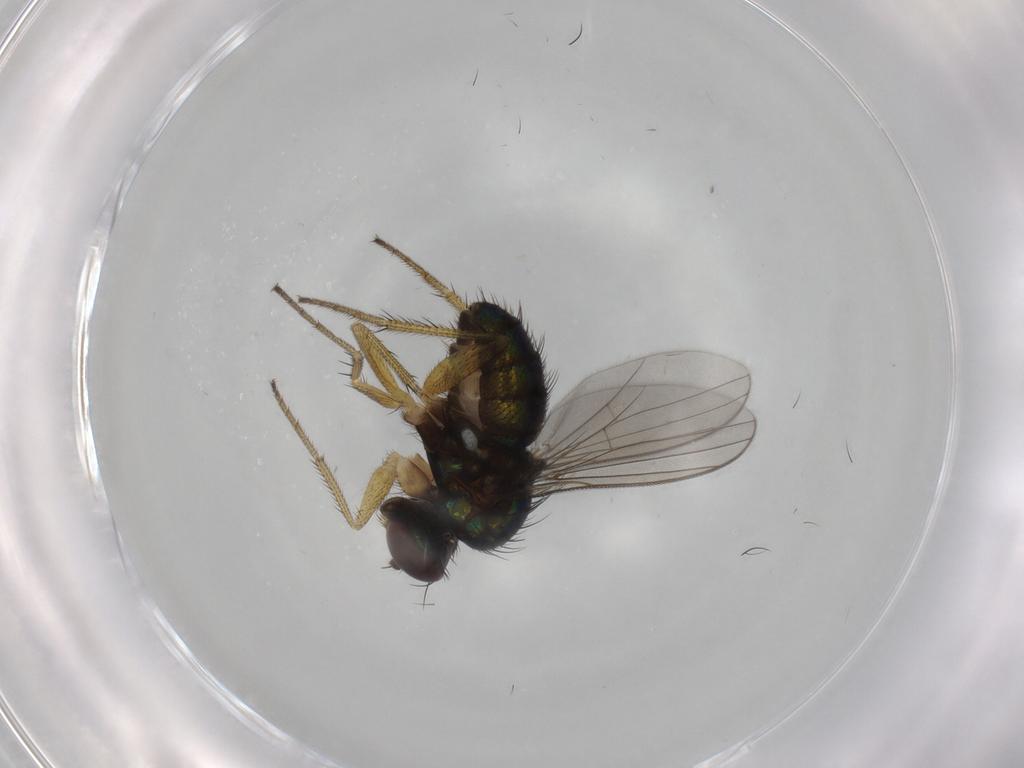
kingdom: Animalia
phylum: Arthropoda
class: Insecta
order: Diptera
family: Dolichopodidae
